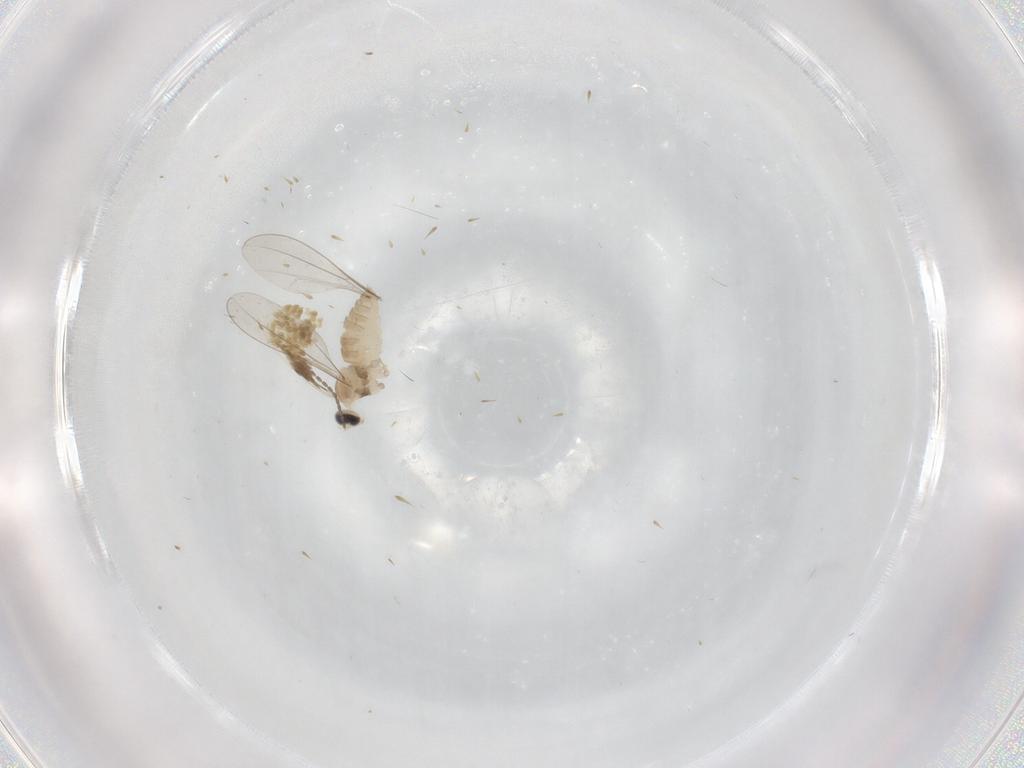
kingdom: Animalia
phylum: Arthropoda
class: Insecta
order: Diptera
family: Cecidomyiidae
